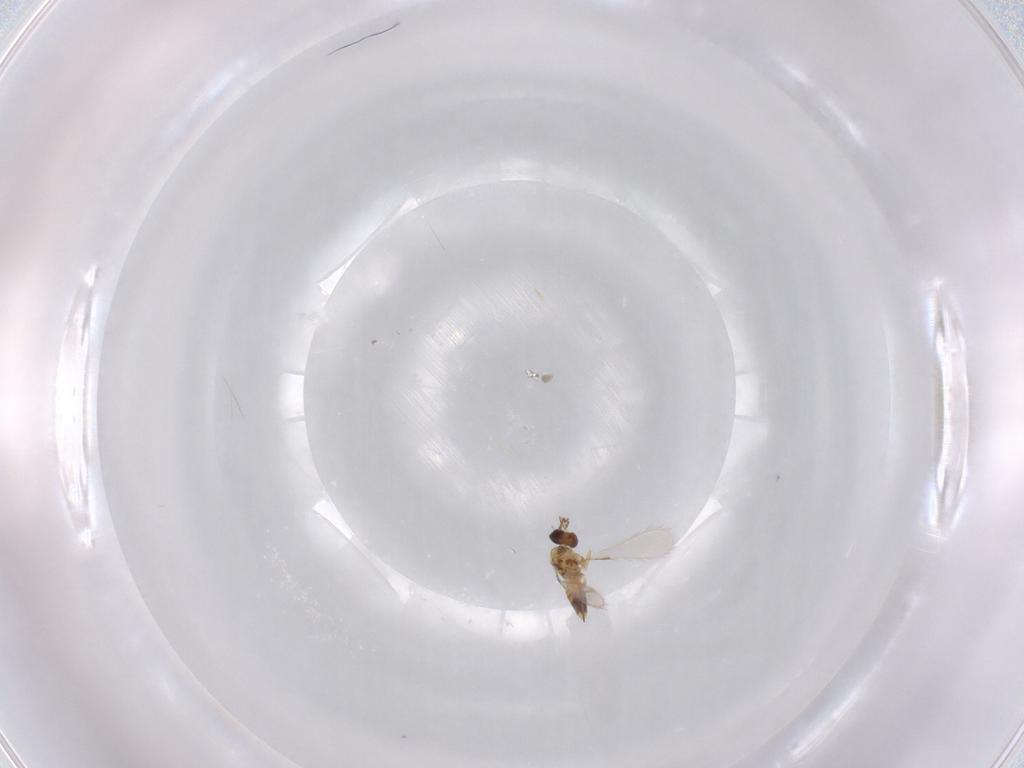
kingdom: Animalia
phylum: Arthropoda
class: Insecta
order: Hymenoptera
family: Mymaridae
